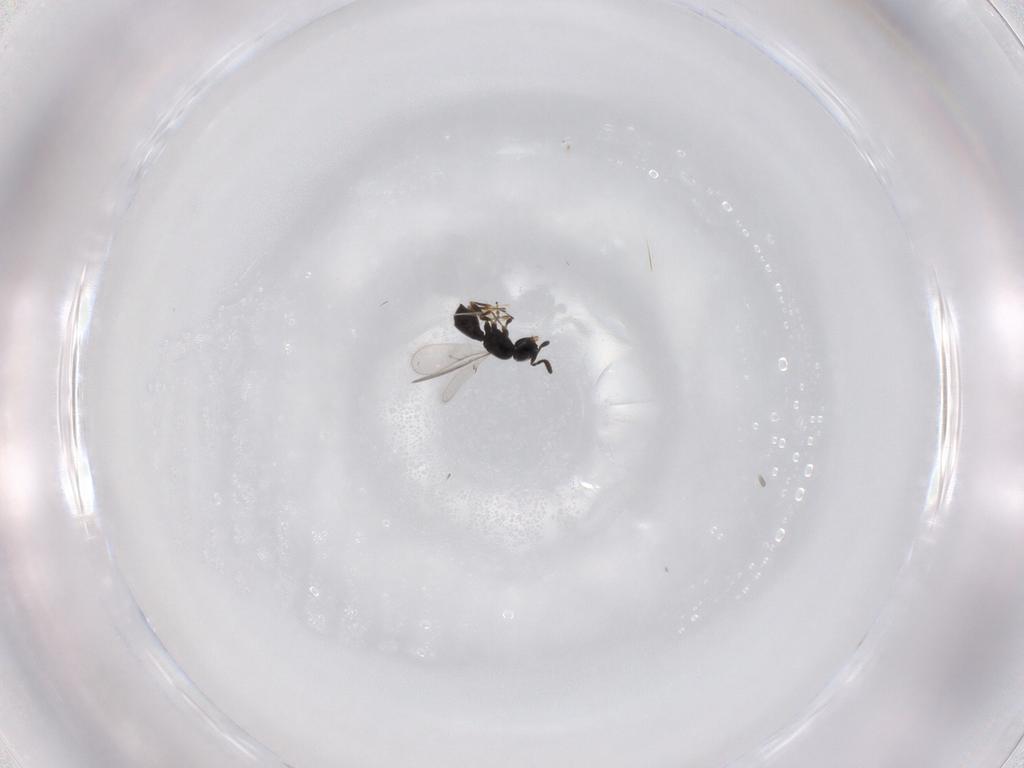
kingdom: Animalia
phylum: Arthropoda
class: Insecta
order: Hymenoptera
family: Scelionidae
